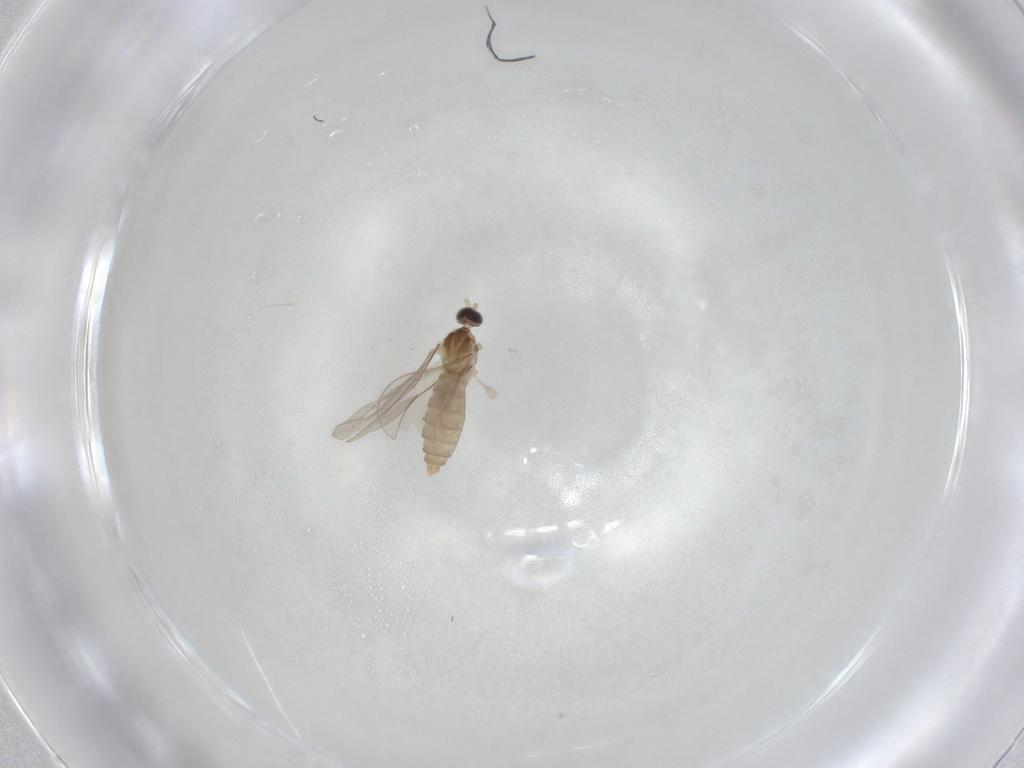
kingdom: Animalia
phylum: Arthropoda
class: Insecta
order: Diptera
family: Cecidomyiidae
